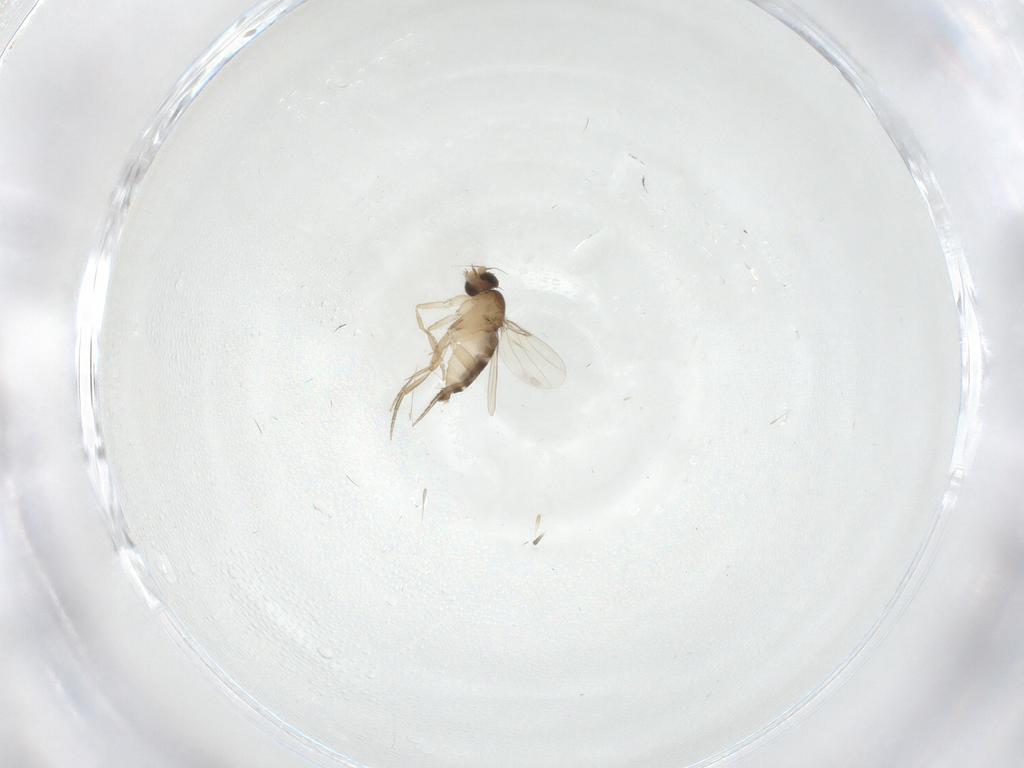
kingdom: Animalia
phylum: Arthropoda
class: Insecta
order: Diptera
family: Phoridae
